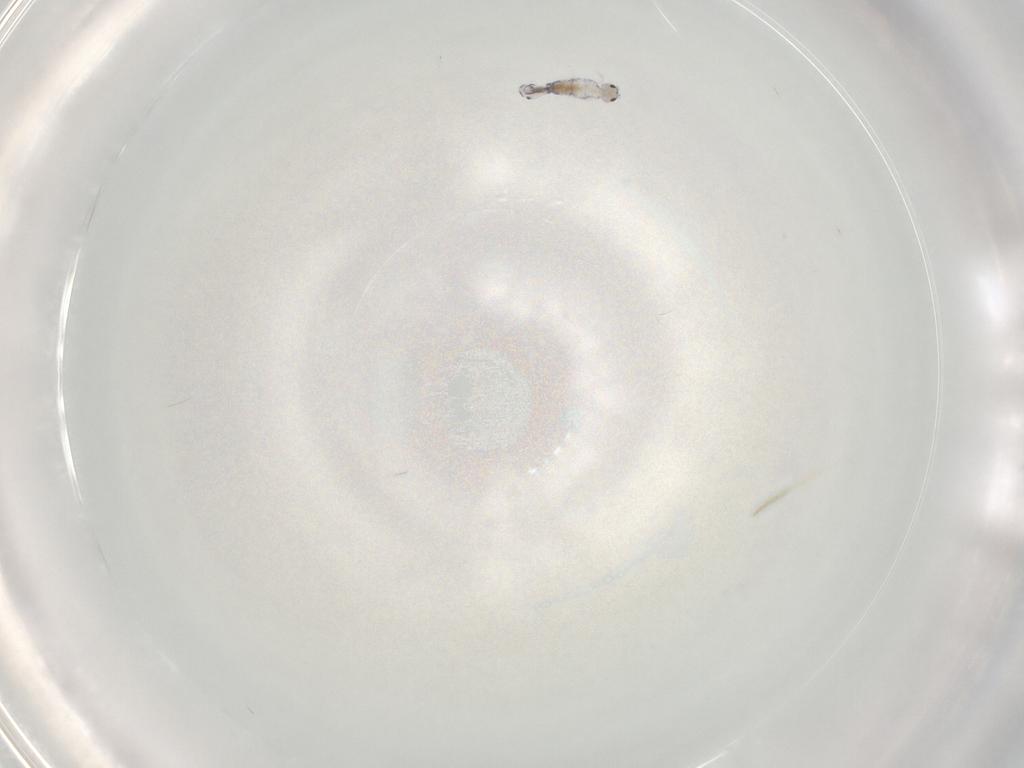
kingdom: Animalia
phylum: Arthropoda
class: Collembola
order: Entomobryomorpha
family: Entomobryidae
